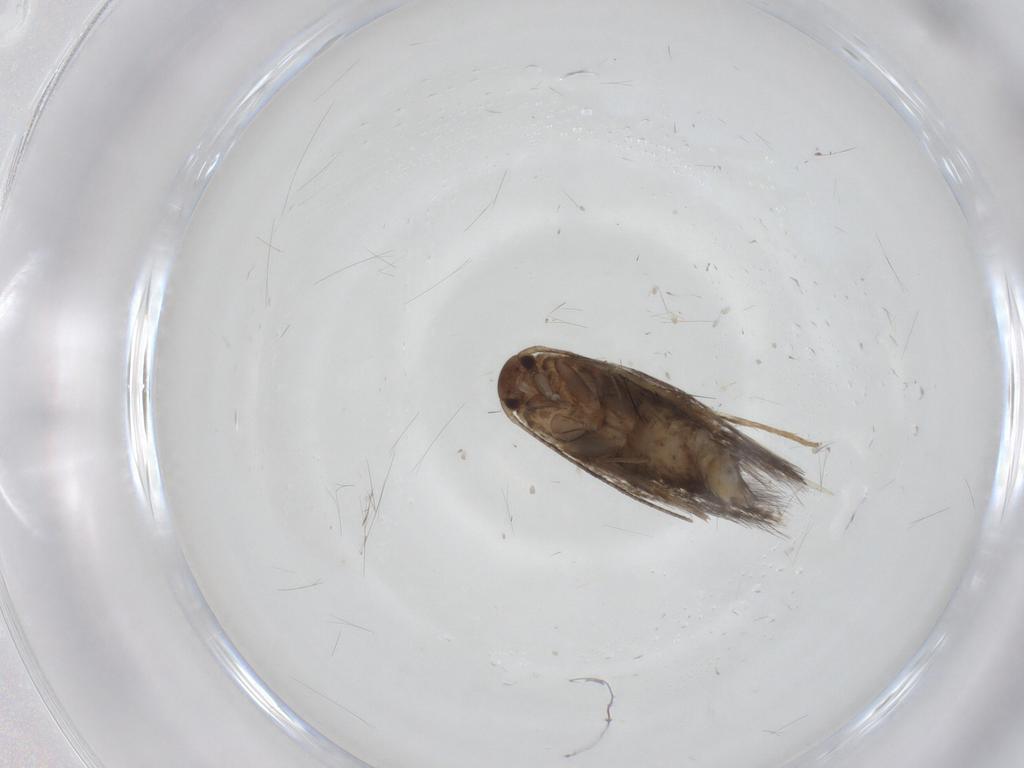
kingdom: Animalia
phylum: Arthropoda
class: Insecta
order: Lepidoptera
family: Elachistidae
